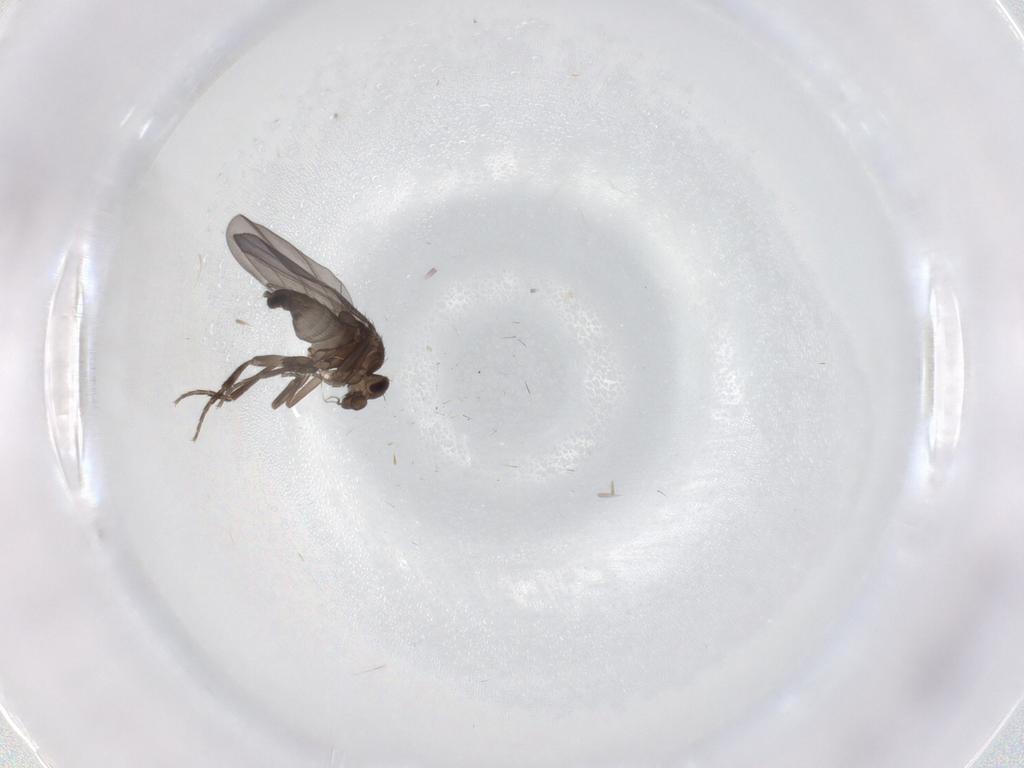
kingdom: Animalia
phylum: Arthropoda
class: Insecta
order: Diptera
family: Phoridae
